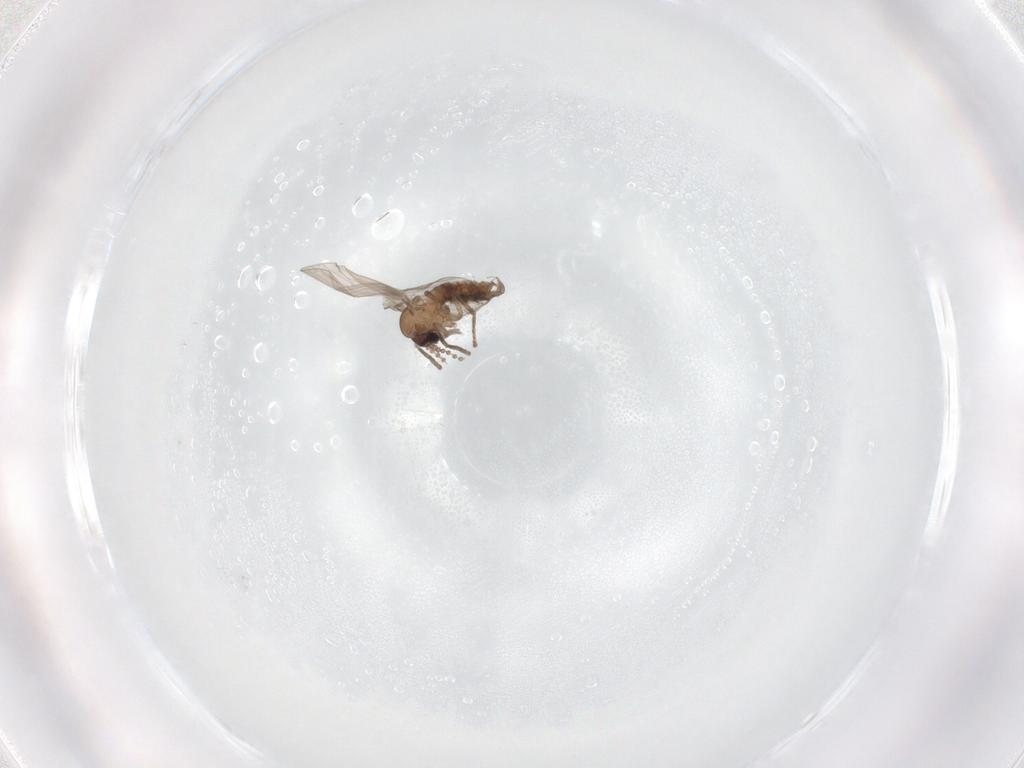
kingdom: Animalia
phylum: Arthropoda
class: Insecta
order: Diptera
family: Psychodidae
